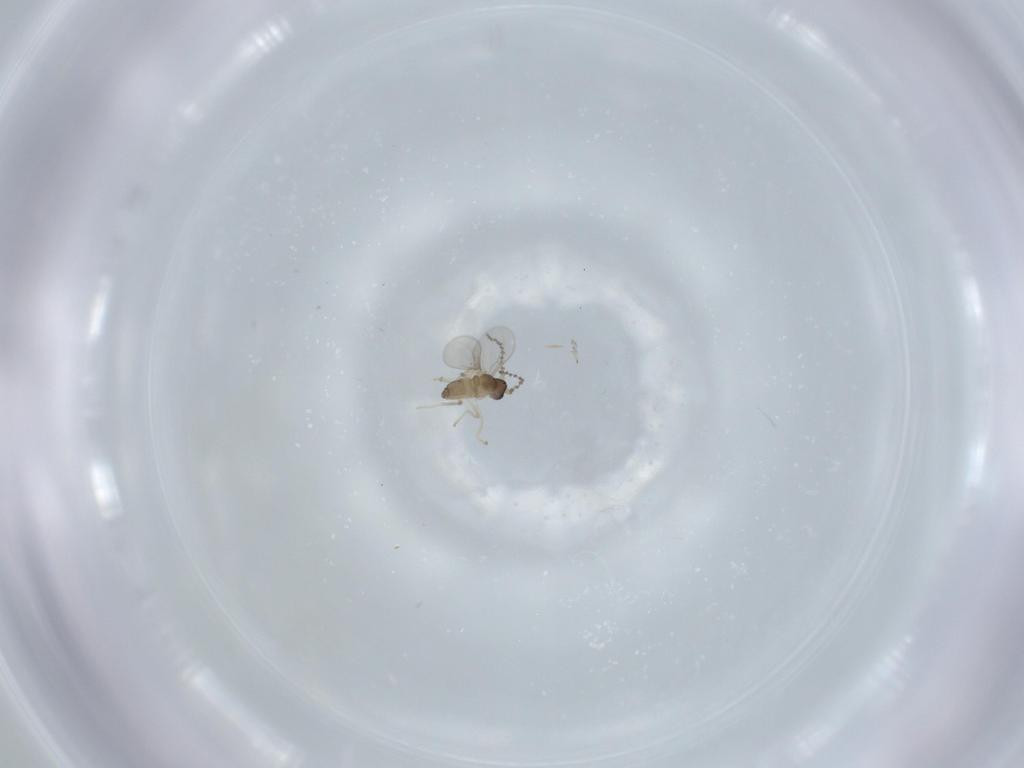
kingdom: Animalia
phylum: Arthropoda
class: Insecta
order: Diptera
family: Cecidomyiidae
